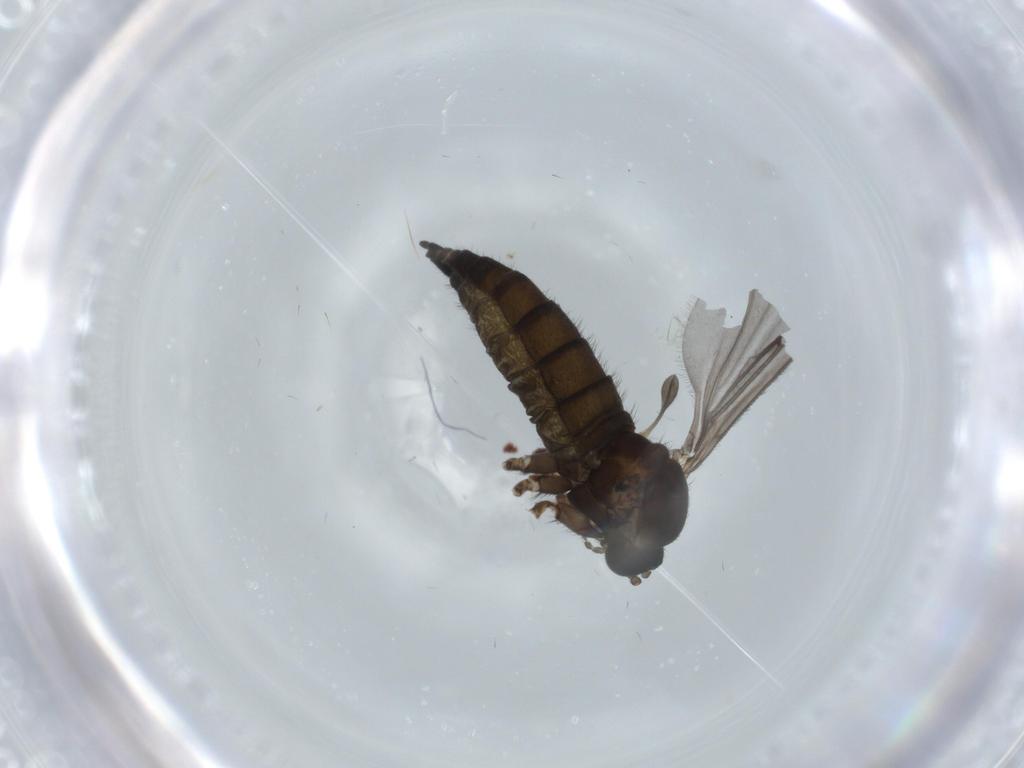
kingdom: Animalia
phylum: Arthropoda
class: Insecta
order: Diptera
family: Sciaridae
